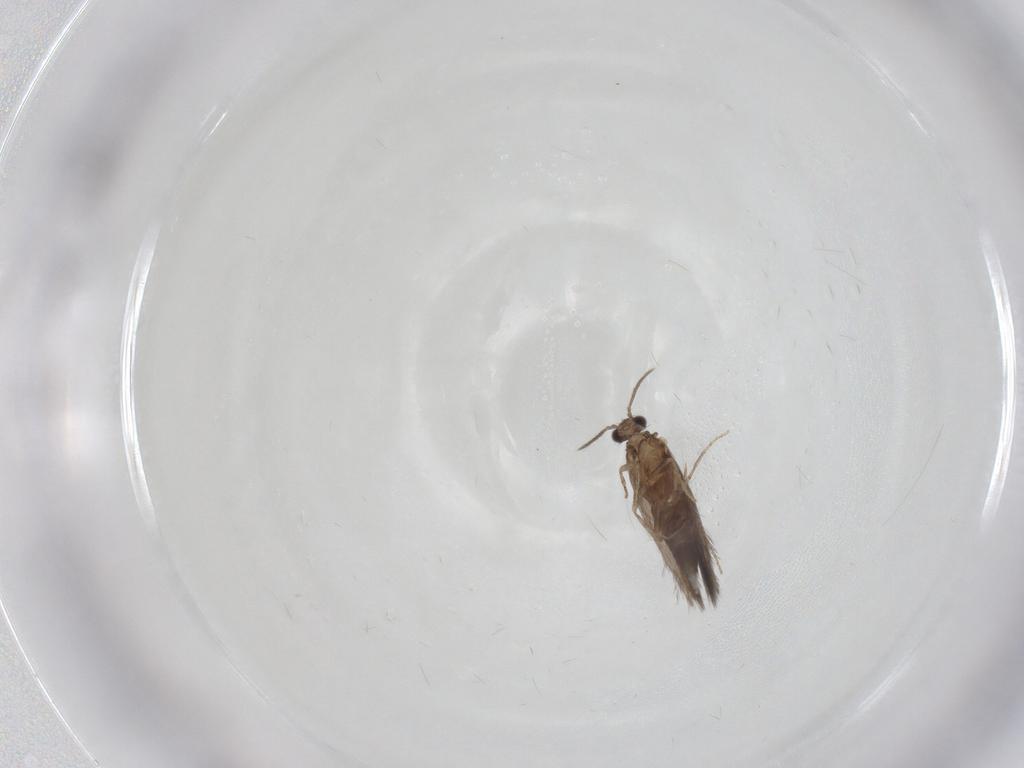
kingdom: Animalia
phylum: Arthropoda
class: Insecta
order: Trichoptera
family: Hydroptilidae
